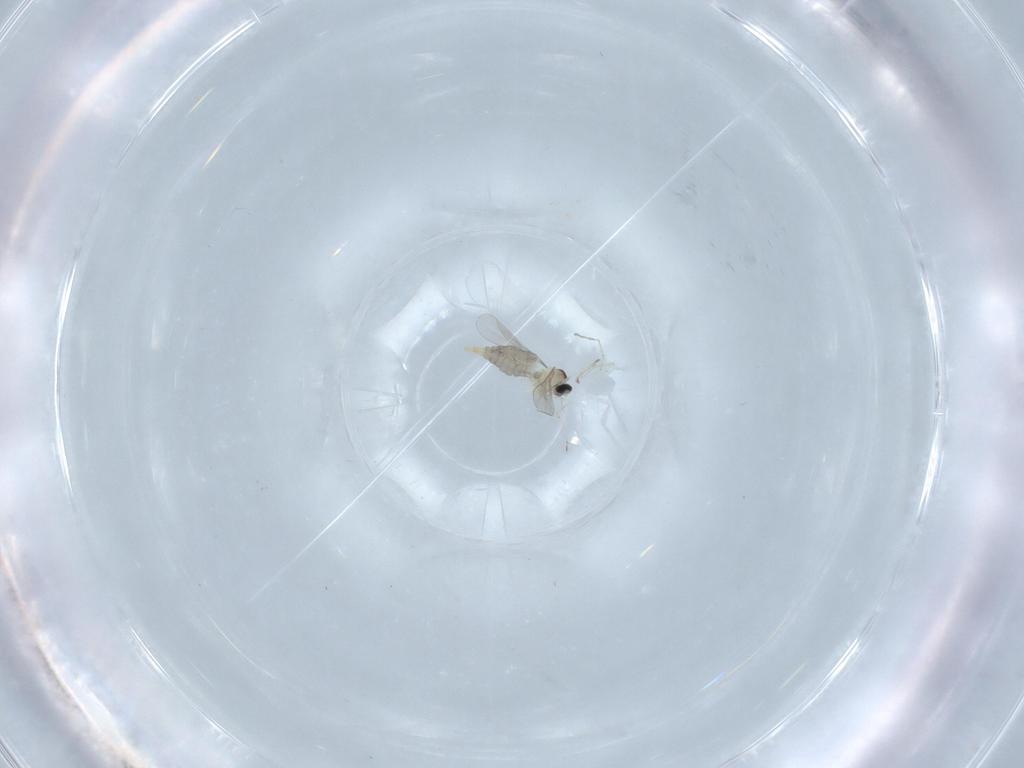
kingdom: Animalia
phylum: Arthropoda
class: Insecta
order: Diptera
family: Cecidomyiidae
